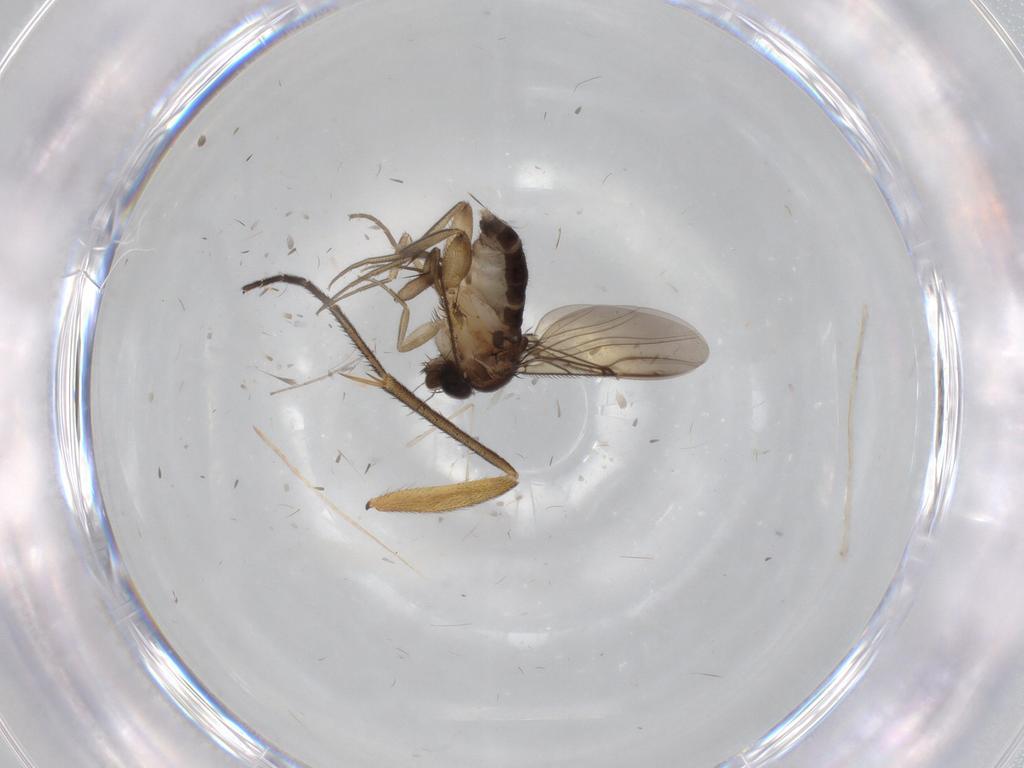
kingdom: Animalia
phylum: Arthropoda
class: Insecta
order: Diptera
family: Phoridae
